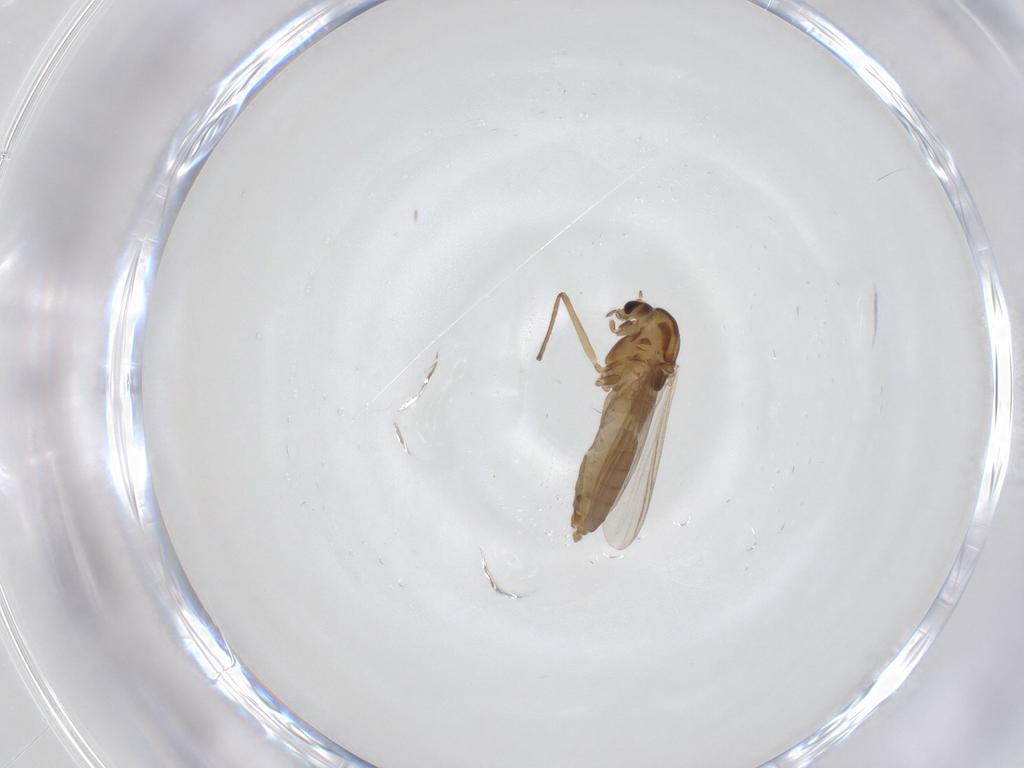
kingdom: Animalia
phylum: Arthropoda
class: Insecta
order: Diptera
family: Chironomidae
